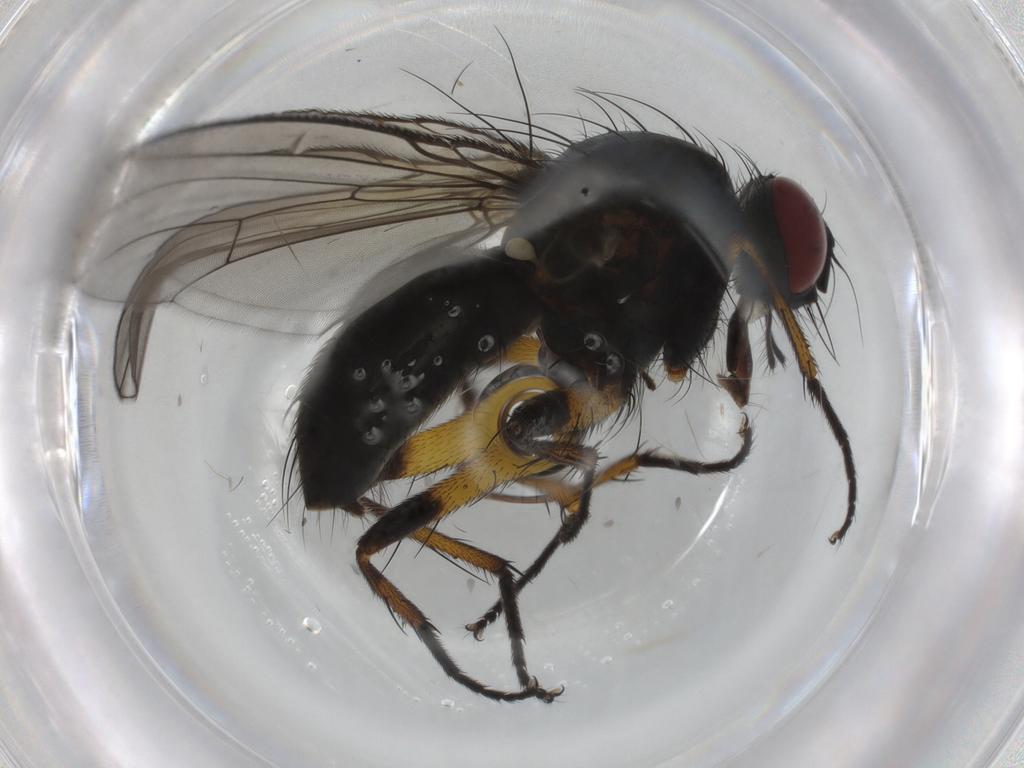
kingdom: Animalia
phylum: Arthropoda
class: Insecta
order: Diptera
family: Muscidae
